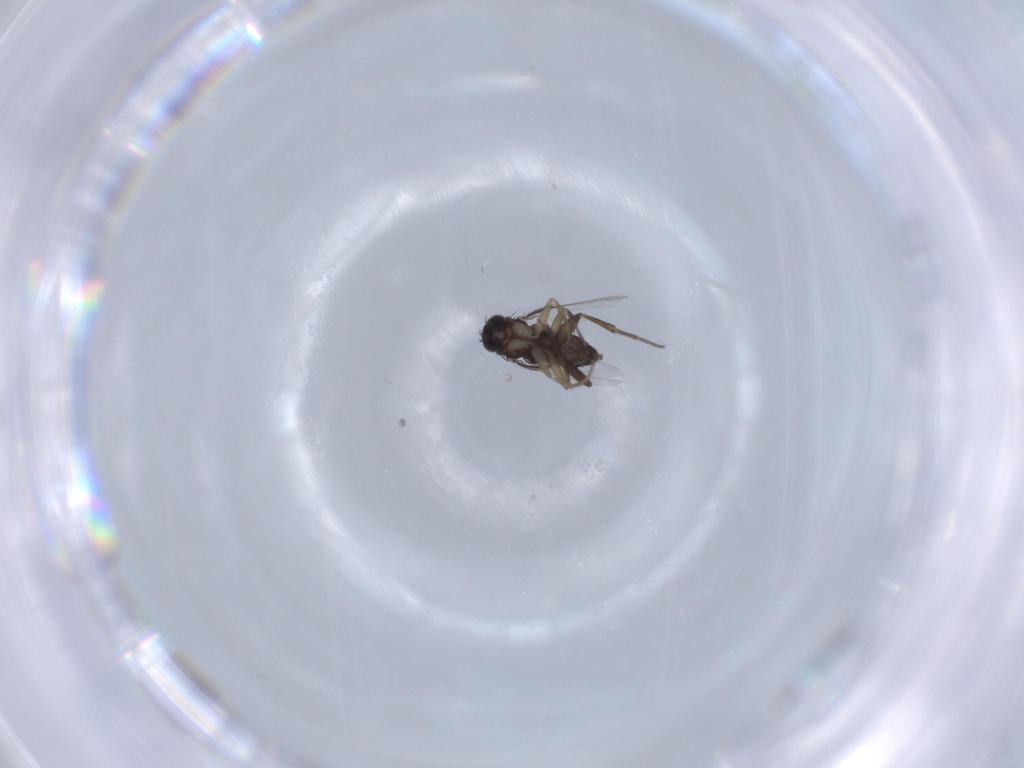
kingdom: Animalia
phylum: Arthropoda
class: Insecta
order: Diptera
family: Phoridae
